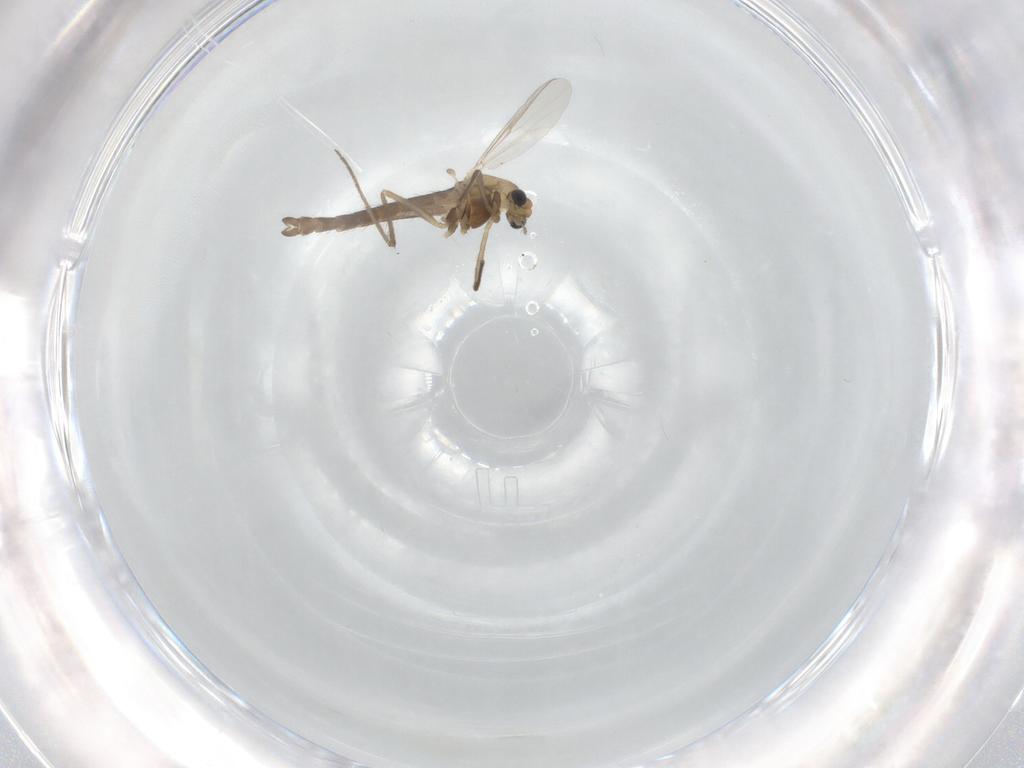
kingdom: Animalia
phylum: Arthropoda
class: Insecta
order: Diptera
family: Chironomidae
